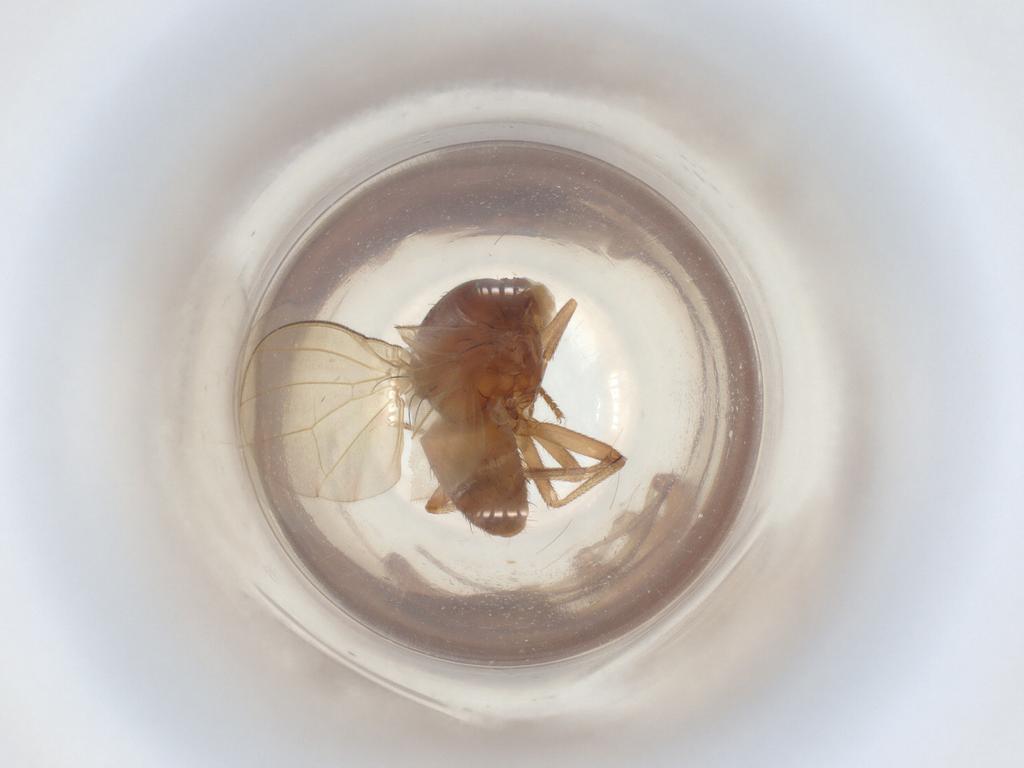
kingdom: Animalia
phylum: Arthropoda
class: Insecta
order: Diptera
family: Lauxaniidae
